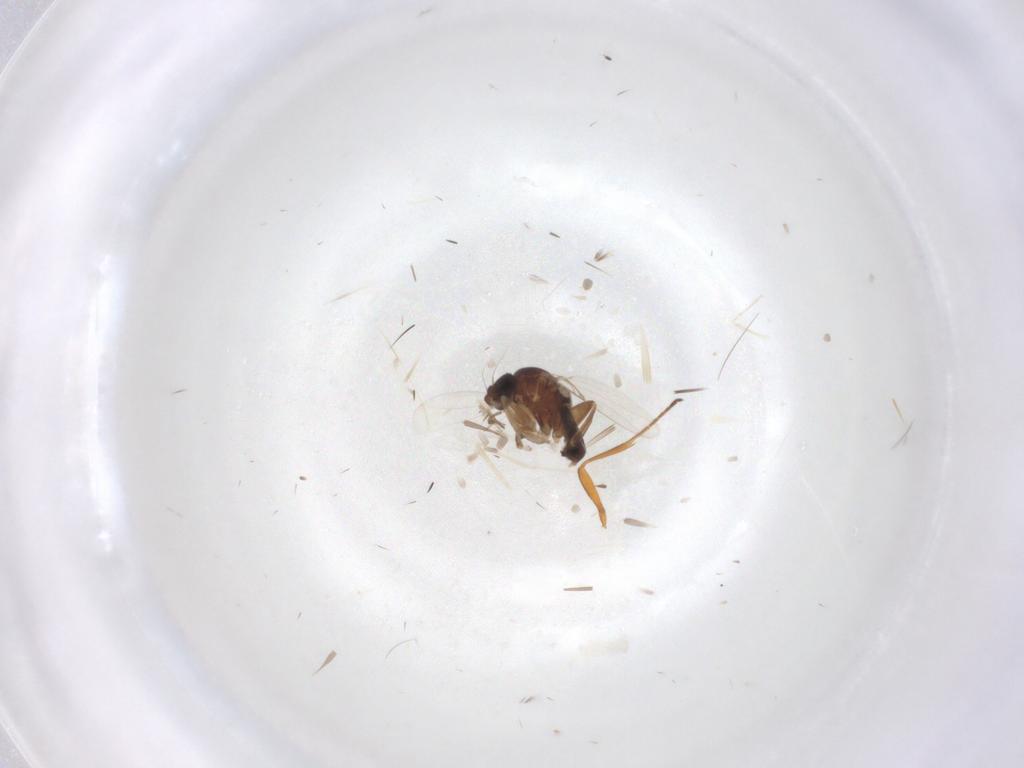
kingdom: Animalia
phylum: Arthropoda
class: Insecta
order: Diptera
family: Phoridae
